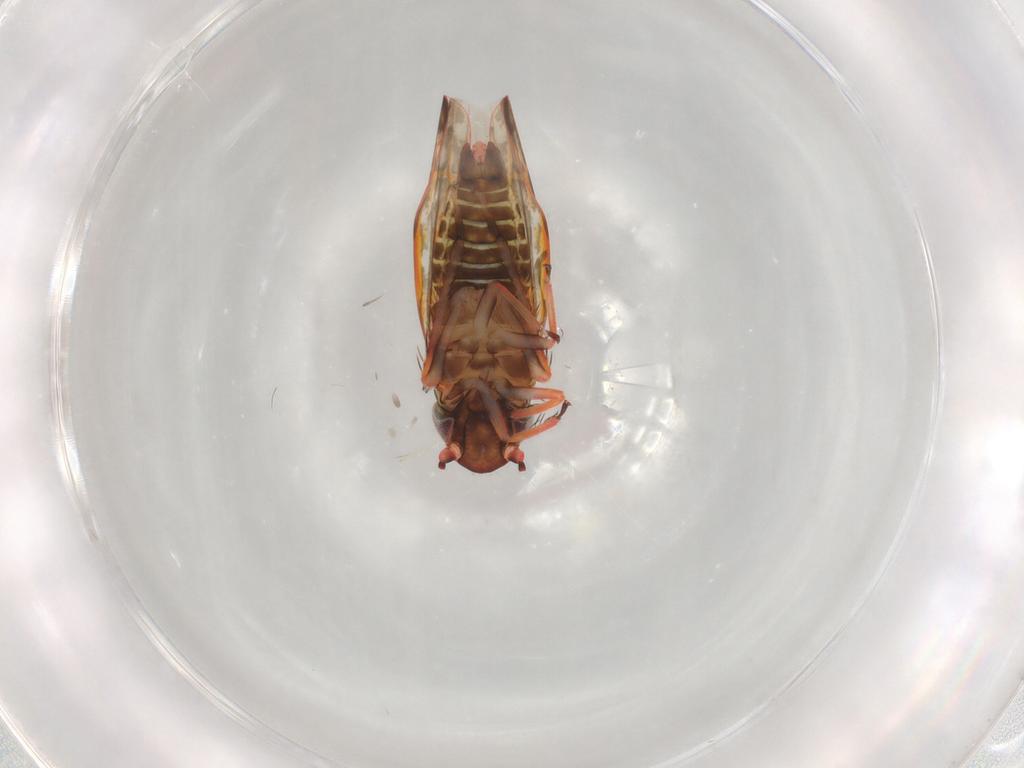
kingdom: Animalia
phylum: Arthropoda
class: Insecta
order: Hemiptera
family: Cicadellidae
